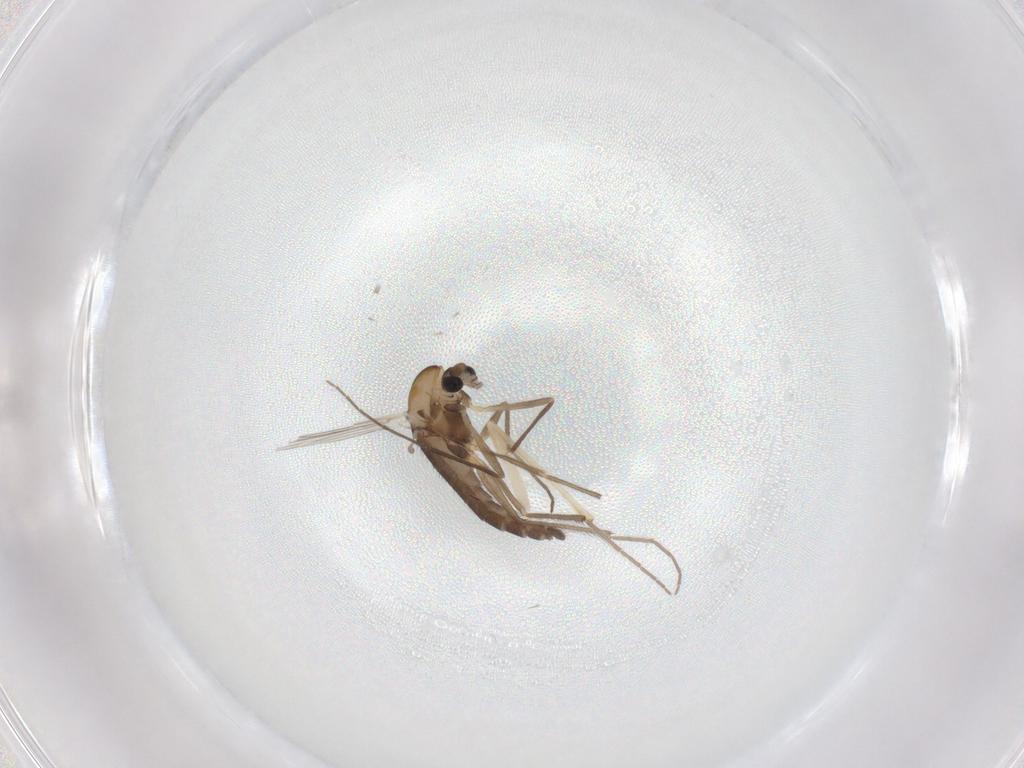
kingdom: Animalia
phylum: Arthropoda
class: Insecta
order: Diptera
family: Chironomidae
